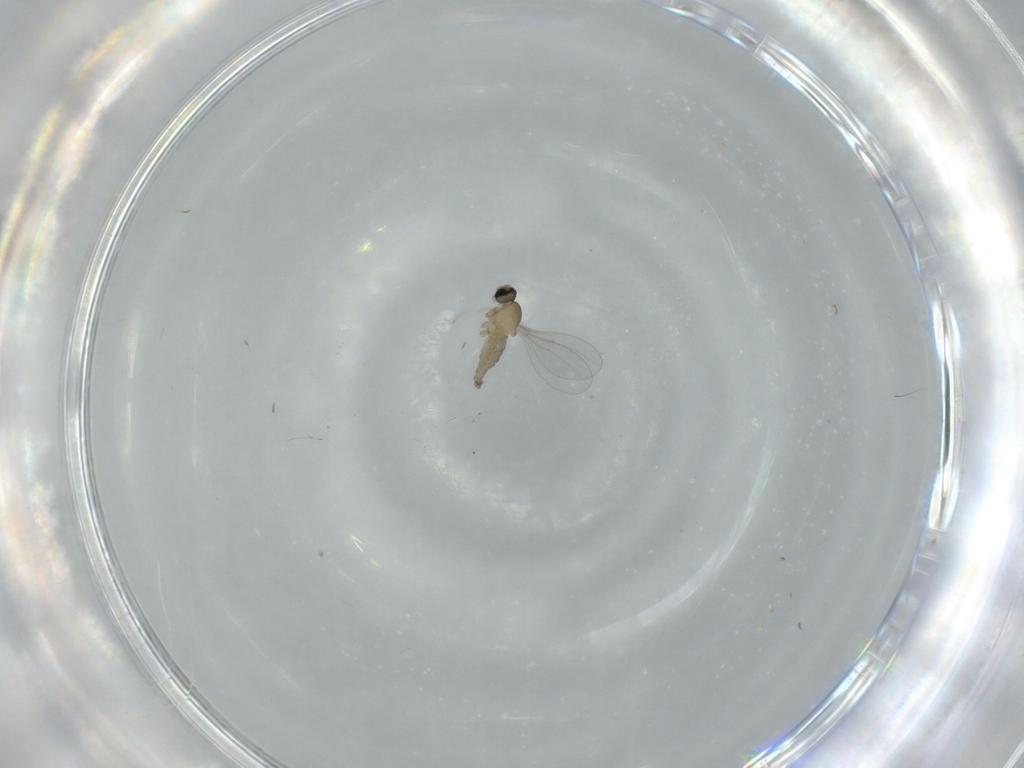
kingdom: Animalia
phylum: Arthropoda
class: Insecta
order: Diptera
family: Cecidomyiidae
